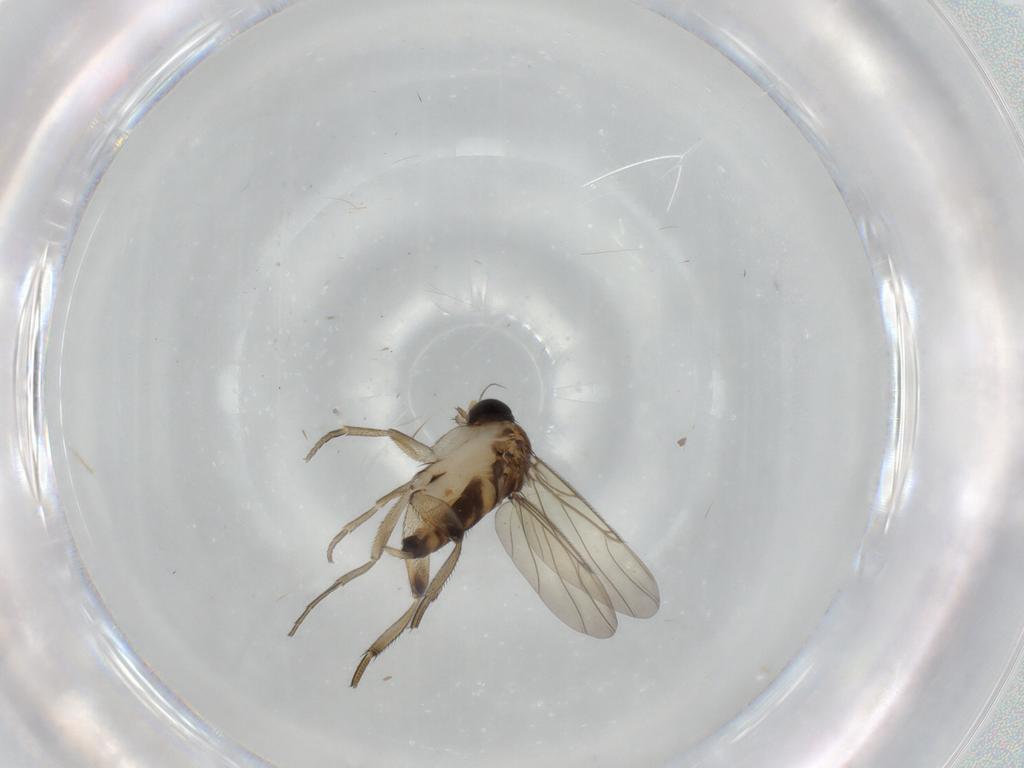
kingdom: Animalia
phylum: Arthropoda
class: Insecta
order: Diptera
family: Phoridae
